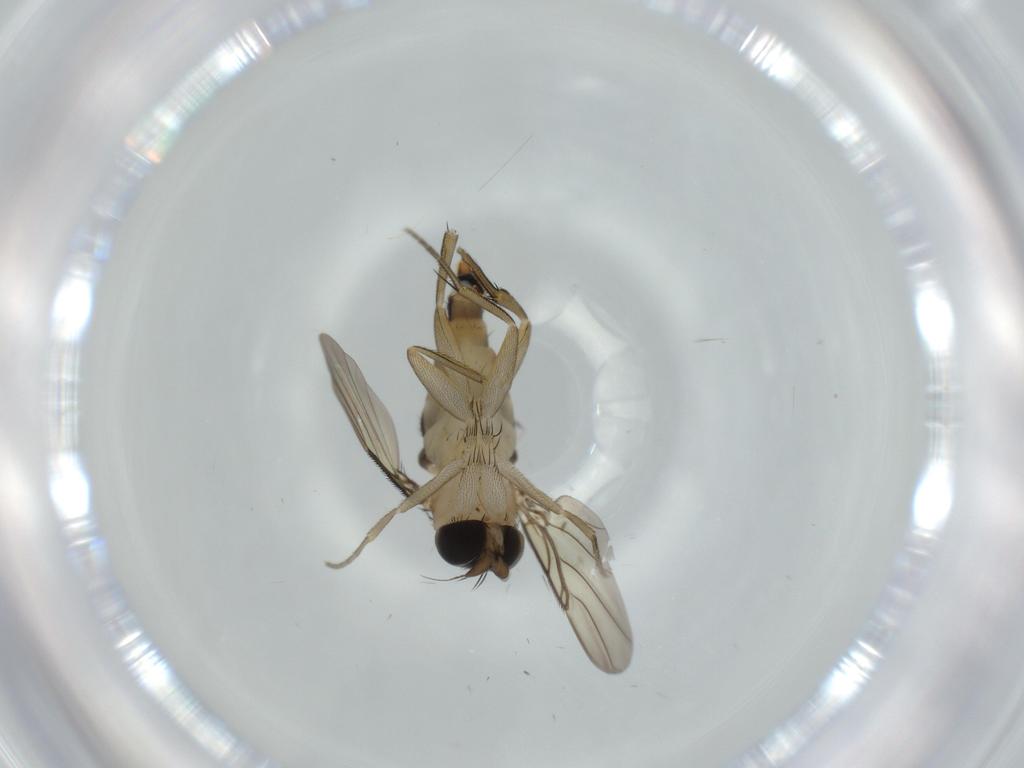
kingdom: Animalia
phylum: Arthropoda
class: Insecta
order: Diptera
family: Phoridae
